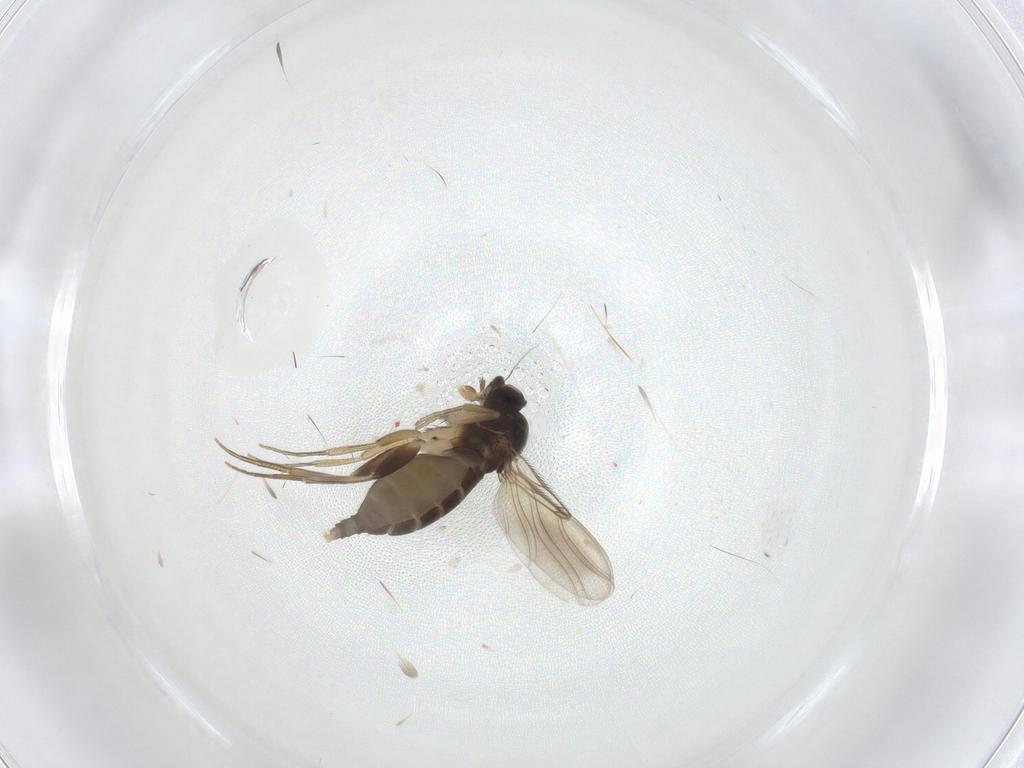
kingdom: Animalia
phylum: Arthropoda
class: Insecta
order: Diptera
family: Phoridae
